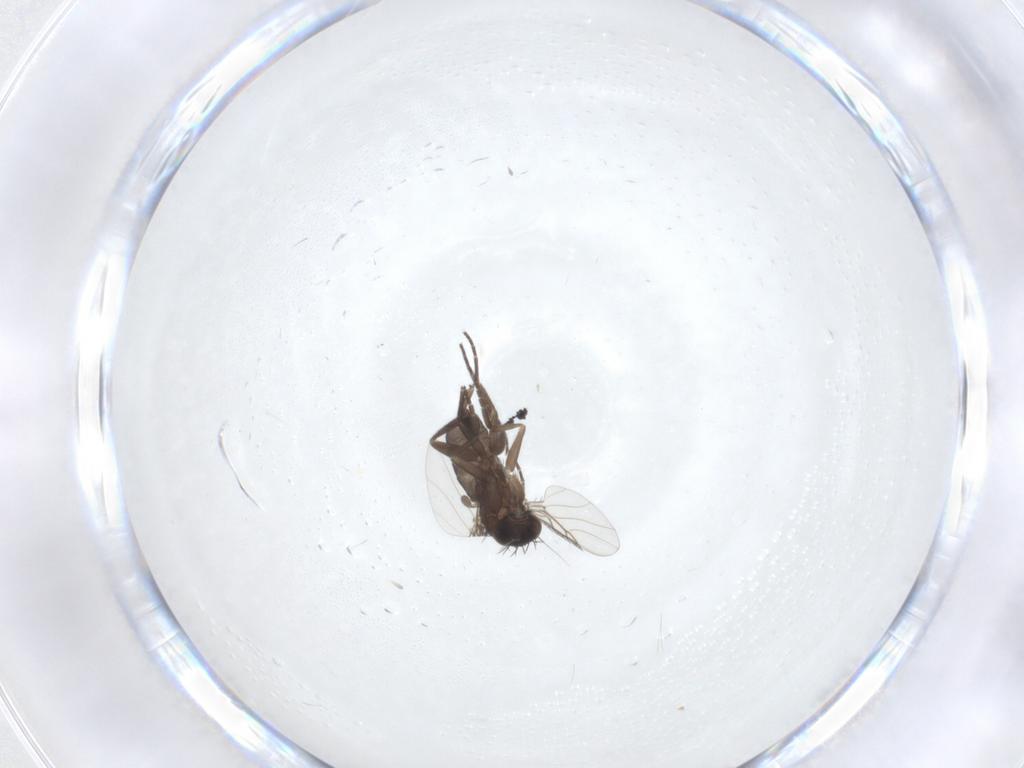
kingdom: Animalia
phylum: Arthropoda
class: Insecta
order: Diptera
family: Phoridae
